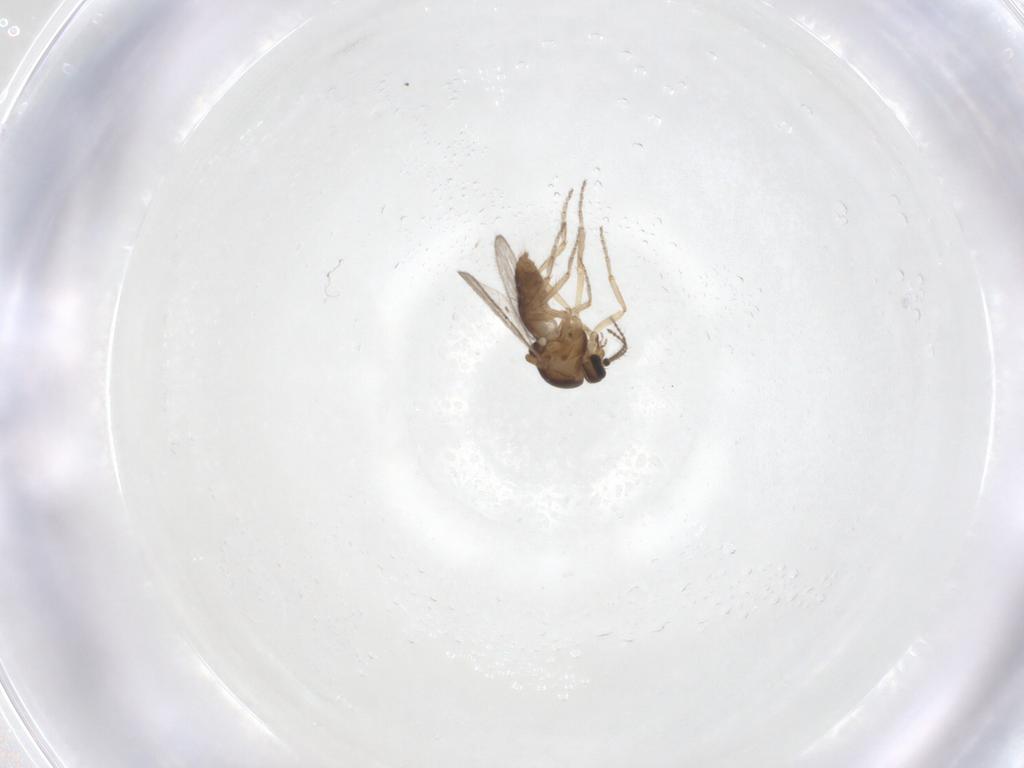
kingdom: Animalia
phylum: Arthropoda
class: Insecta
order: Diptera
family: Ceratopogonidae
